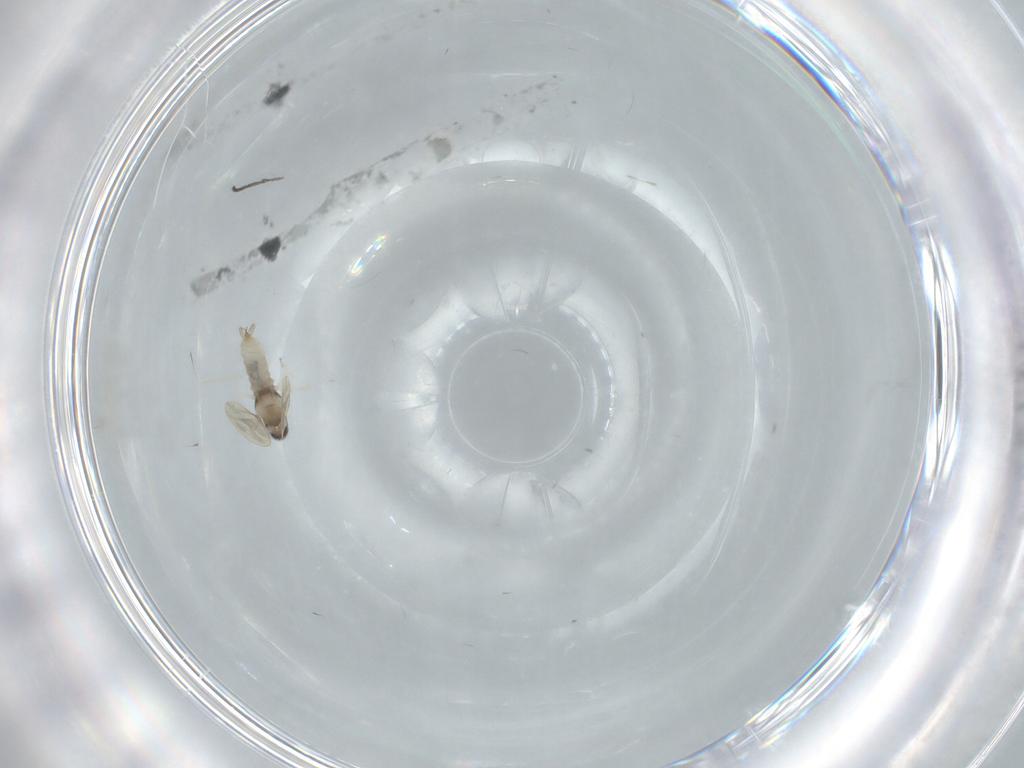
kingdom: Animalia
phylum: Arthropoda
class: Insecta
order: Diptera
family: Cecidomyiidae
